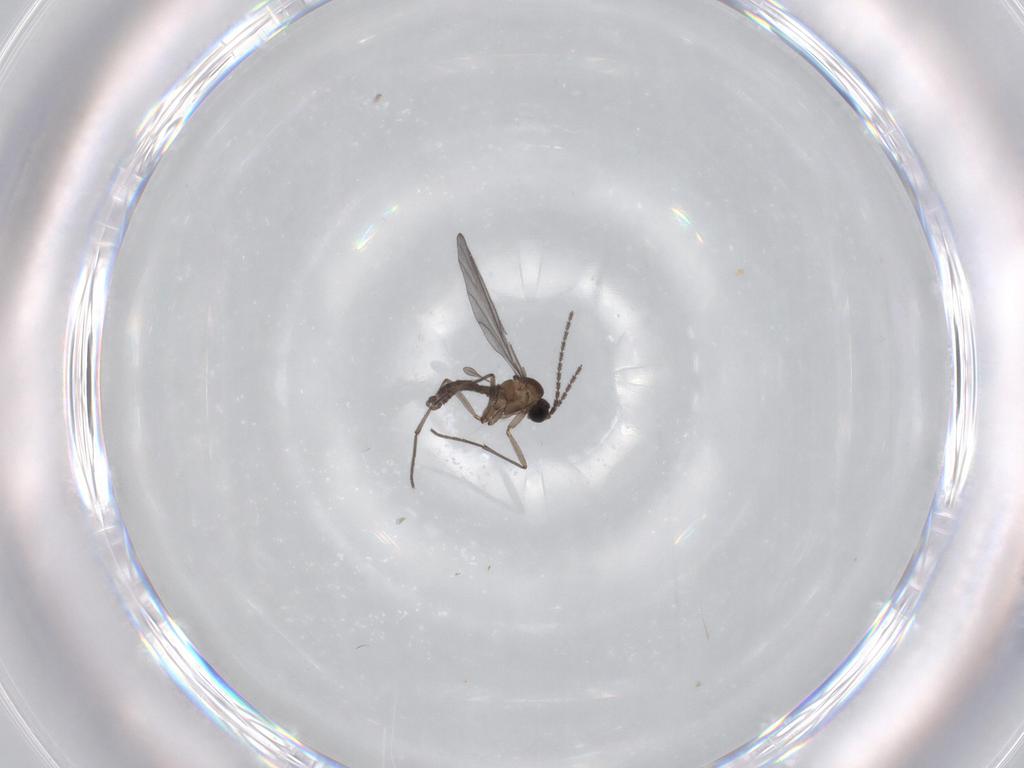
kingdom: Animalia
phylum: Arthropoda
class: Insecta
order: Diptera
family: Sciaridae
